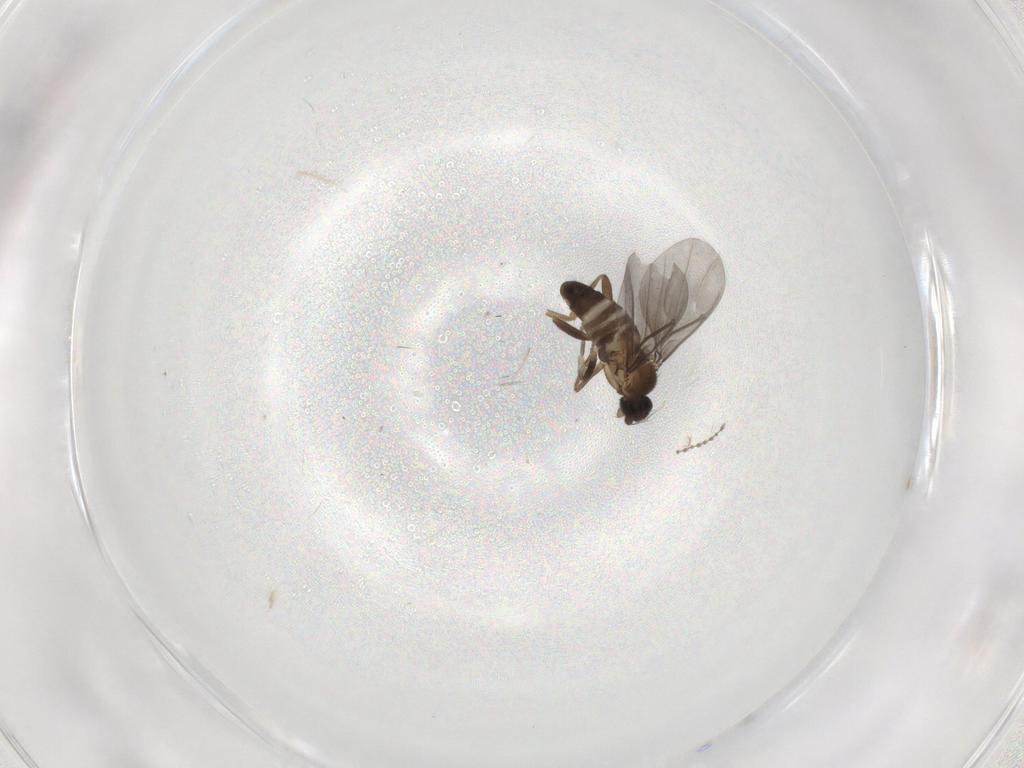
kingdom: Animalia
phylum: Arthropoda
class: Insecta
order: Diptera
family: Phoridae
